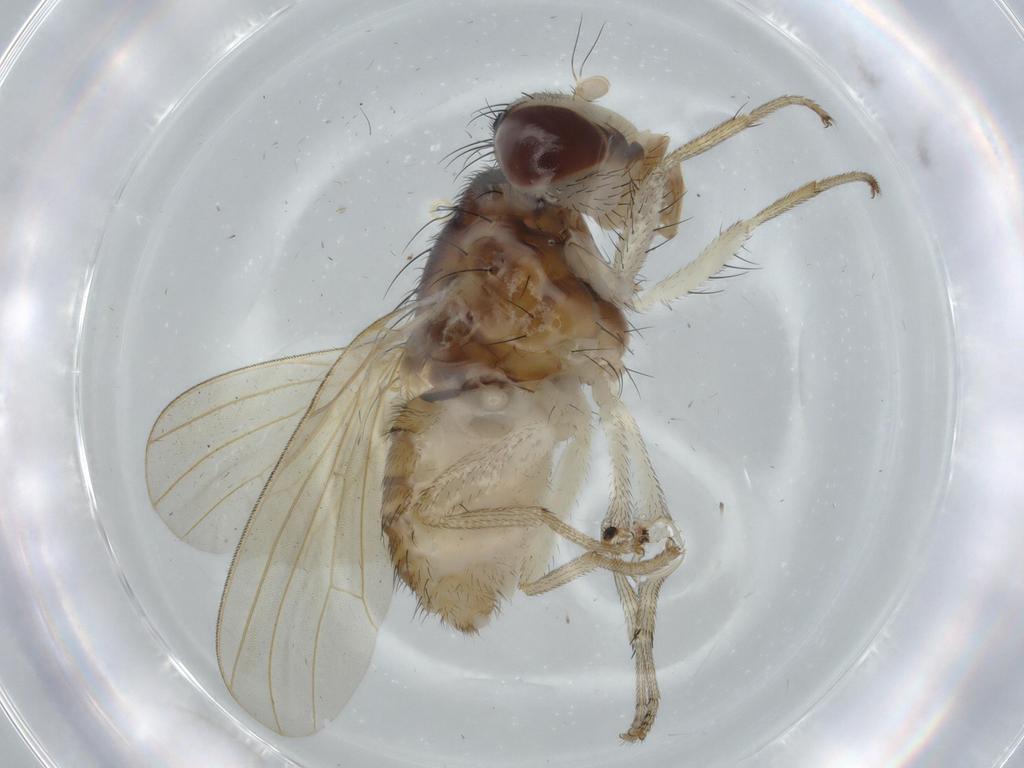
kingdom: Animalia
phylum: Arthropoda
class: Insecta
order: Diptera
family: Lauxaniidae
